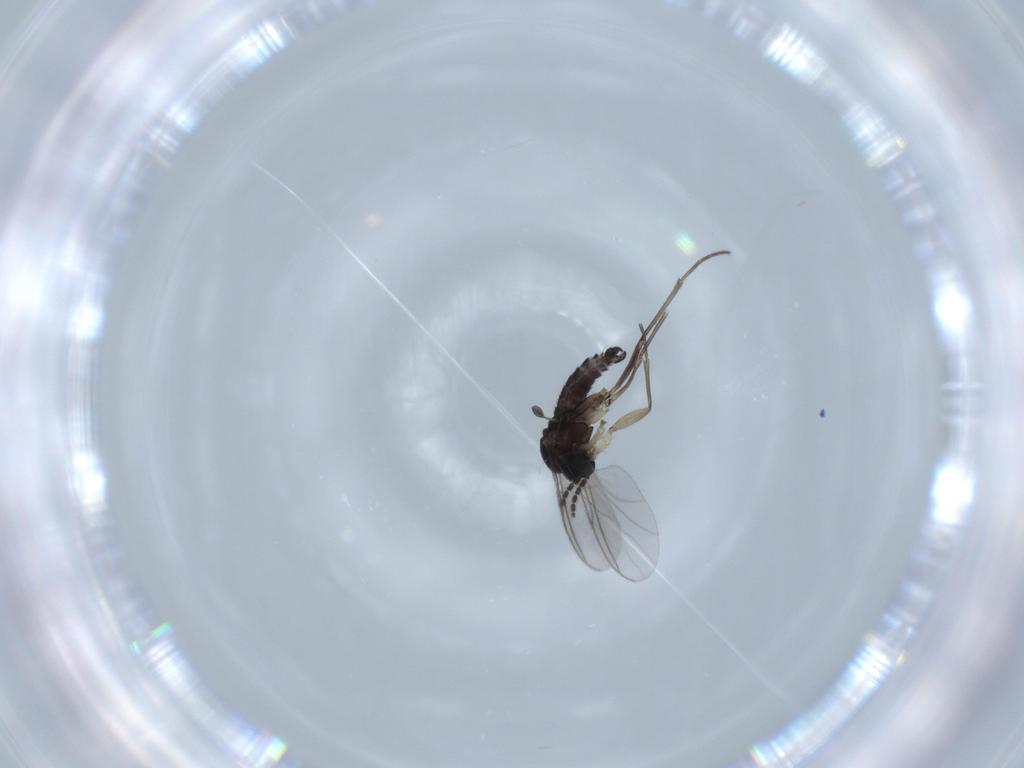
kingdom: Animalia
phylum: Arthropoda
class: Insecta
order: Diptera
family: Sciaridae
